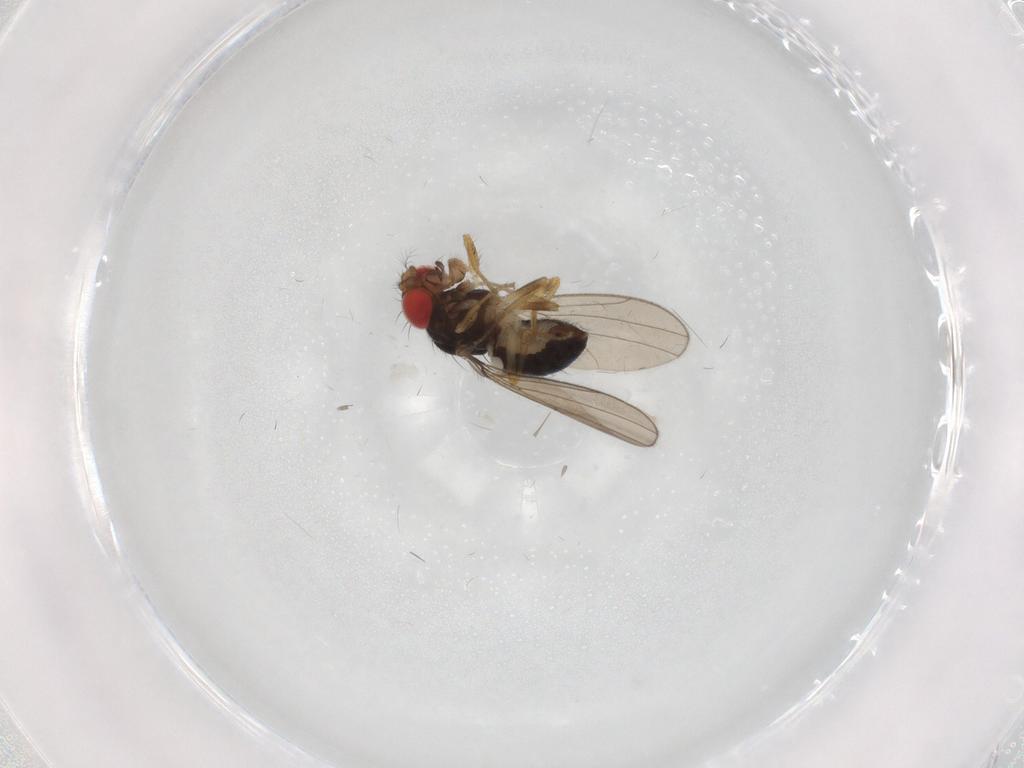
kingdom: Animalia
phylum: Arthropoda
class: Insecta
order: Diptera
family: Drosophilidae
